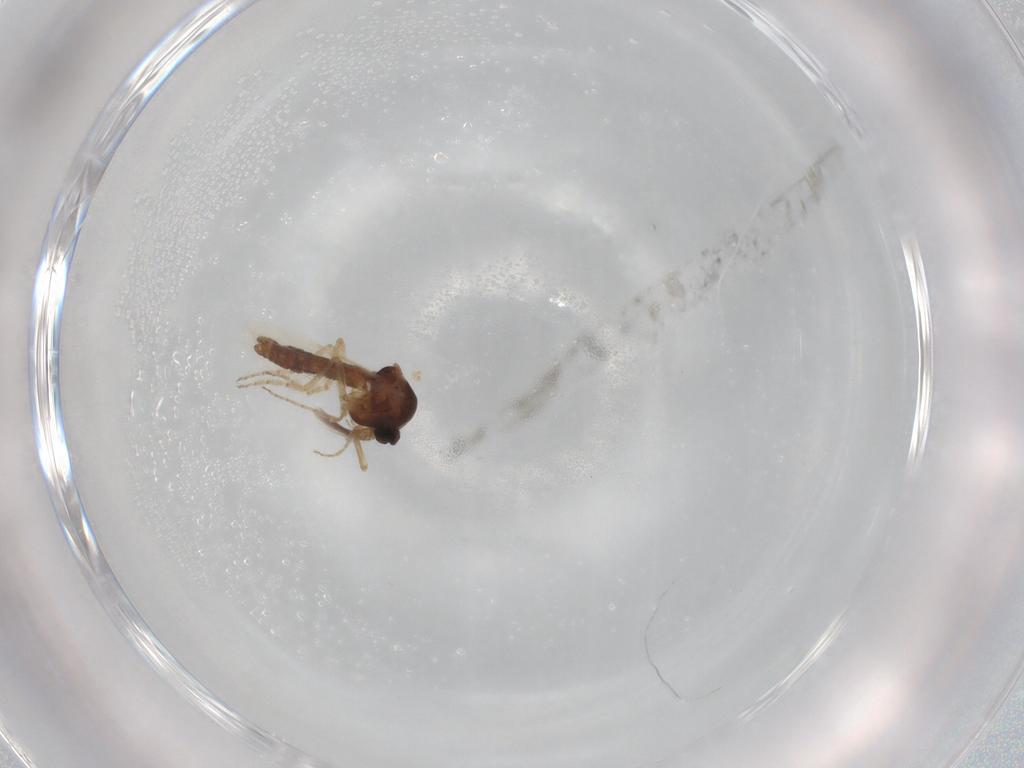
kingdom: Animalia
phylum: Arthropoda
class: Insecta
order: Diptera
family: Ceratopogonidae
